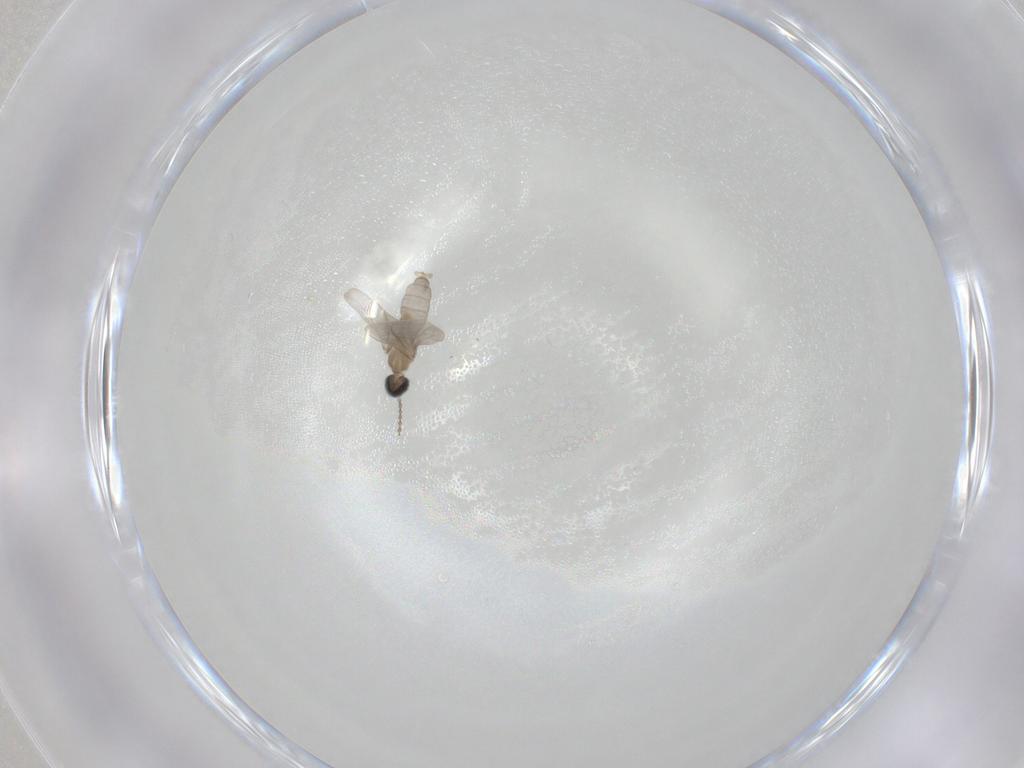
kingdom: Animalia
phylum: Arthropoda
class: Insecta
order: Diptera
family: Cecidomyiidae
